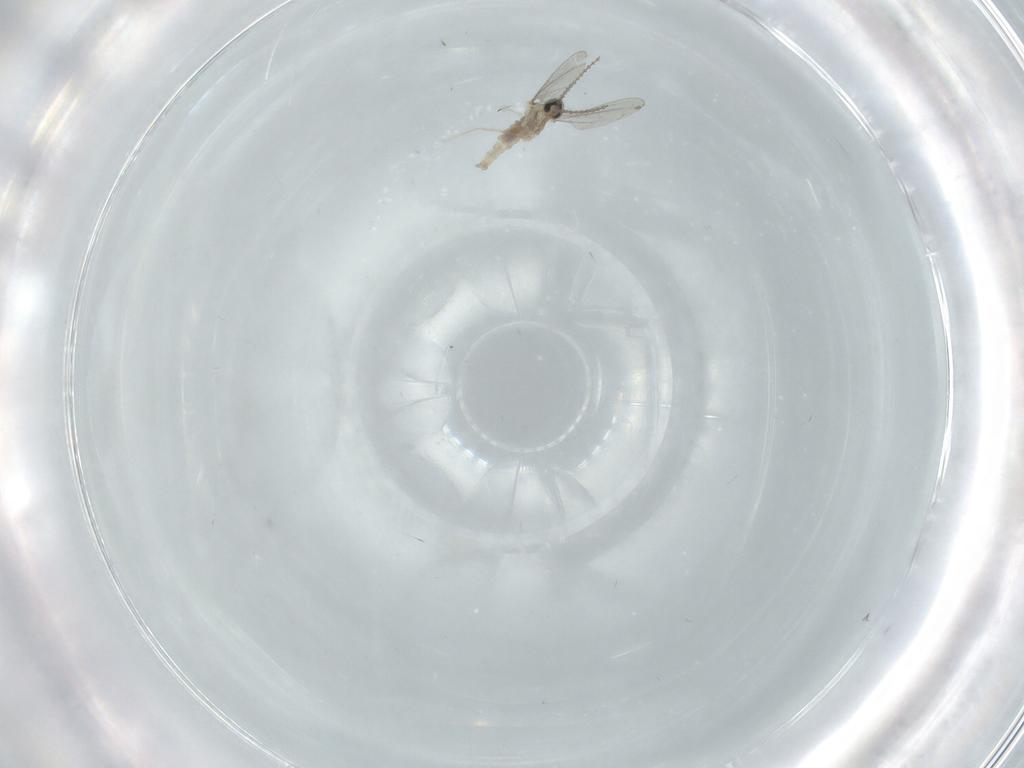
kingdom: Animalia
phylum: Arthropoda
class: Insecta
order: Diptera
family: Cecidomyiidae
